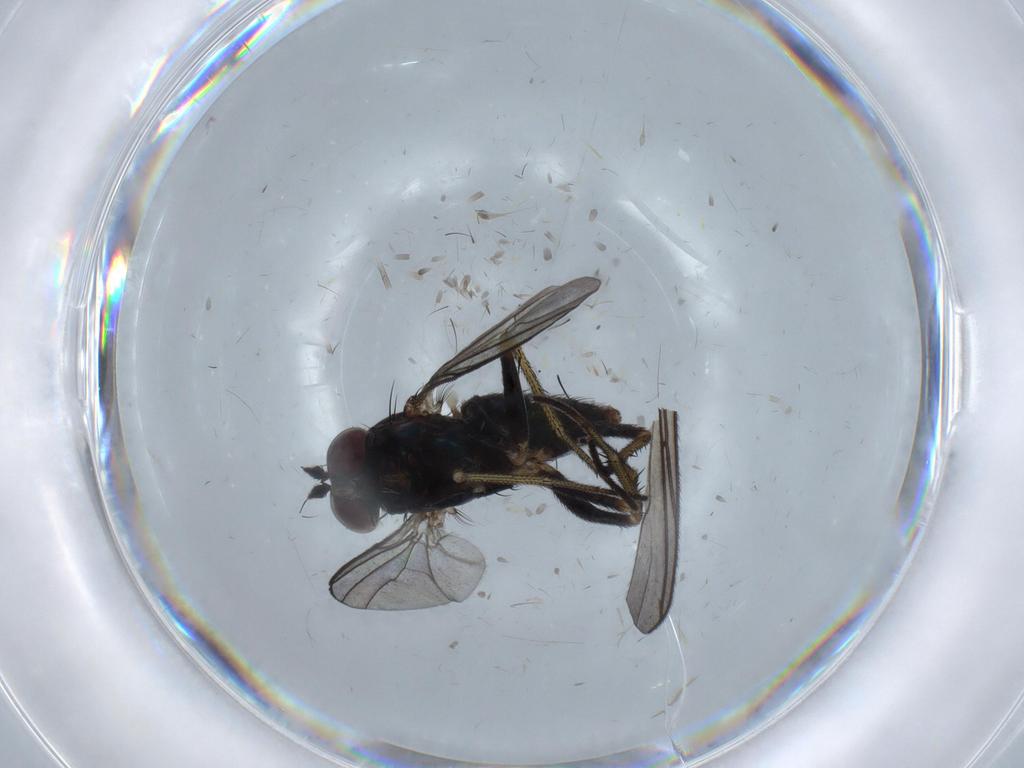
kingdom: Animalia
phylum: Arthropoda
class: Insecta
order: Diptera
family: Dolichopodidae
